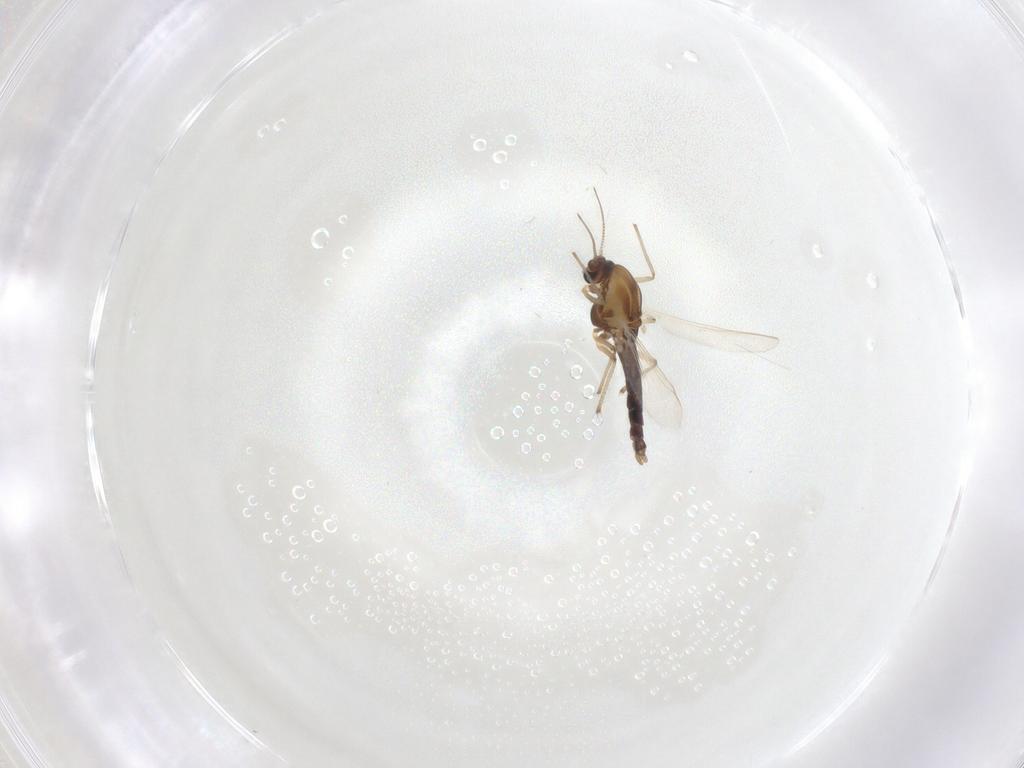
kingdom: Animalia
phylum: Arthropoda
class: Insecta
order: Diptera
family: Chironomidae
